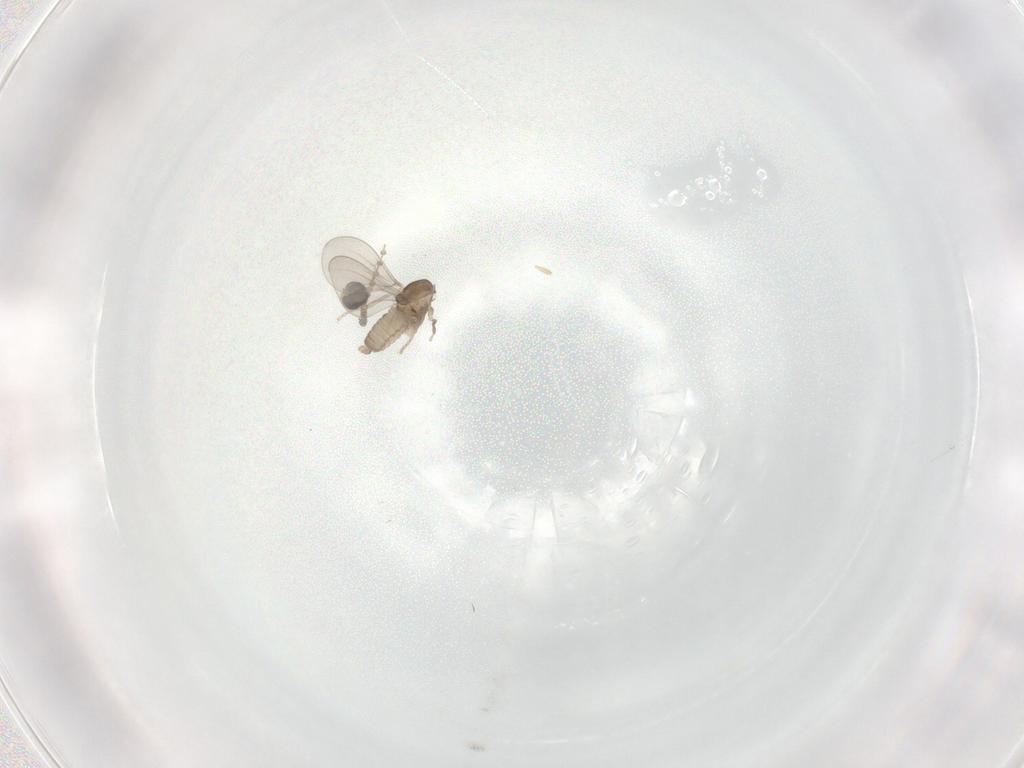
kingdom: Animalia
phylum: Arthropoda
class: Insecta
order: Diptera
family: Cecidomyiidae
